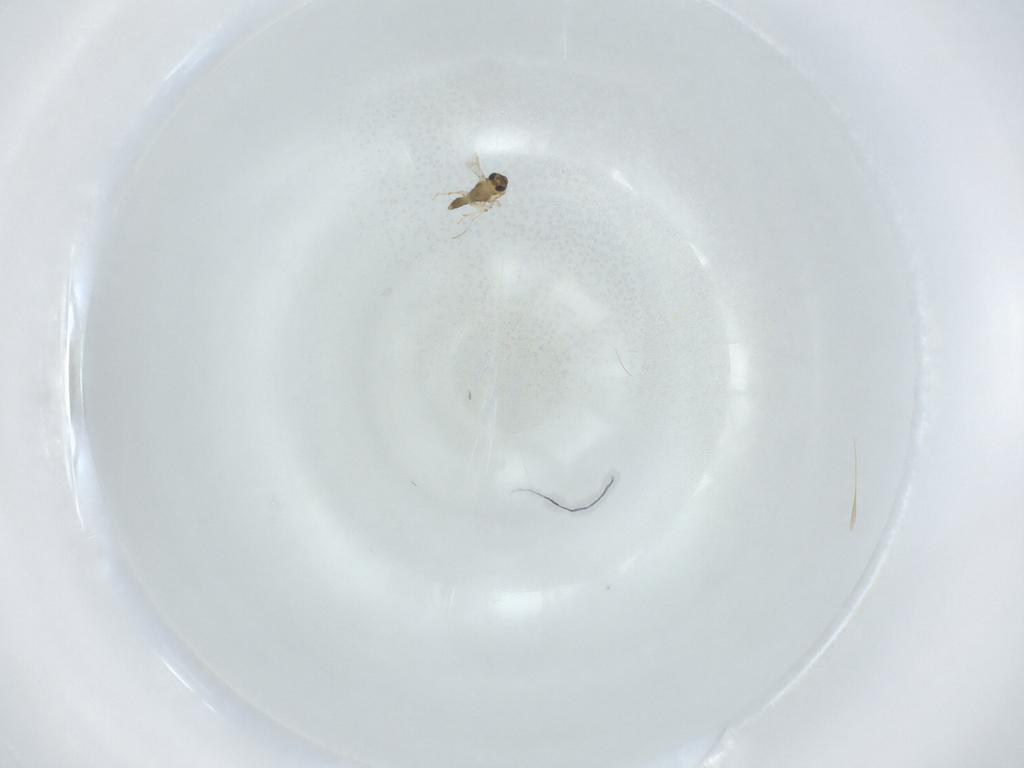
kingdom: Animalia
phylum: Arthropoda
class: Insecta
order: Diptera
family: Chironomidae
